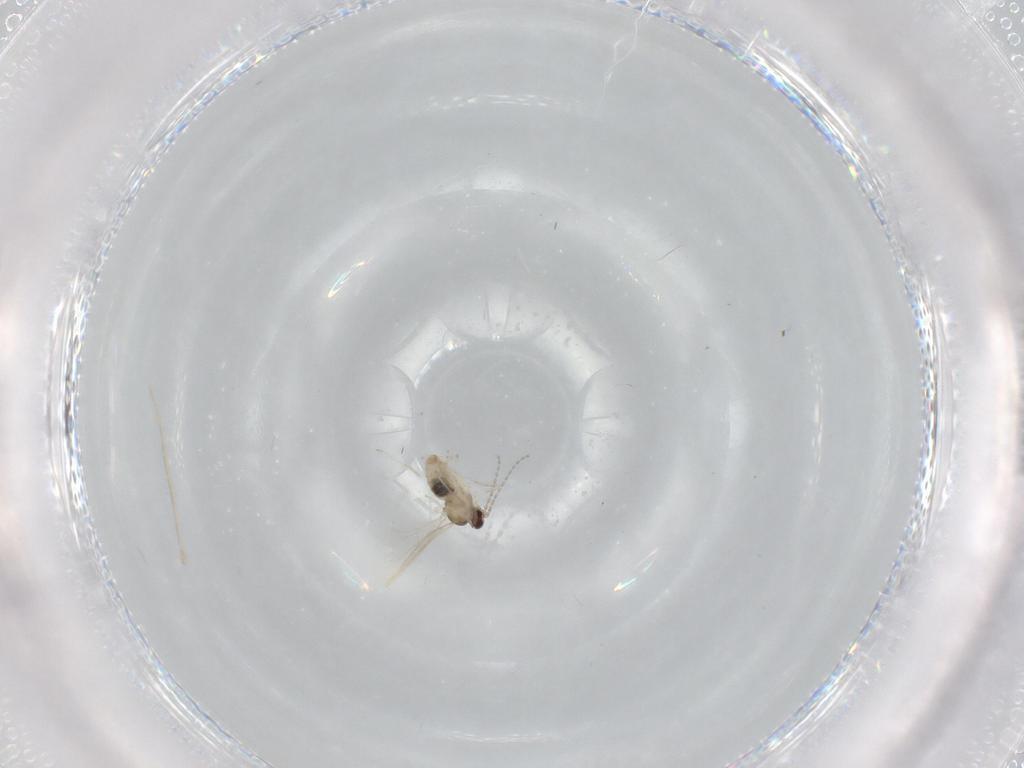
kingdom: Animalia
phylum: Arthropoda
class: Insecta
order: Diptera
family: Cecidomyiidae
